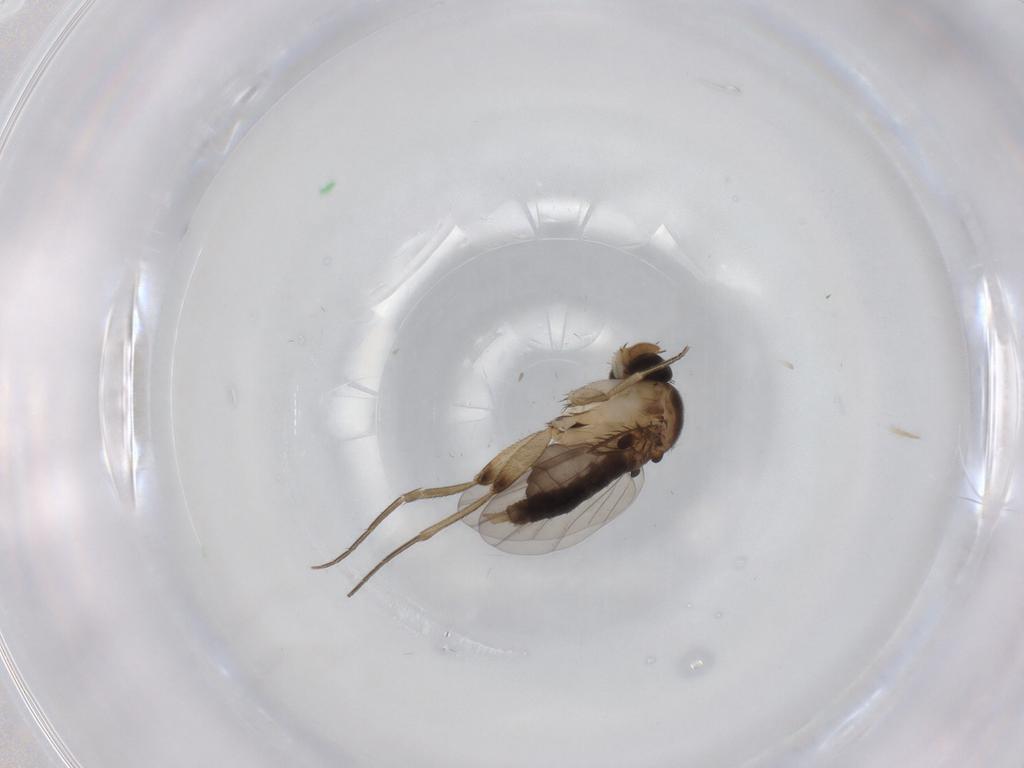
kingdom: Animalia
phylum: Arthropoda
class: Insecta
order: Diptera
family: Phoridae
